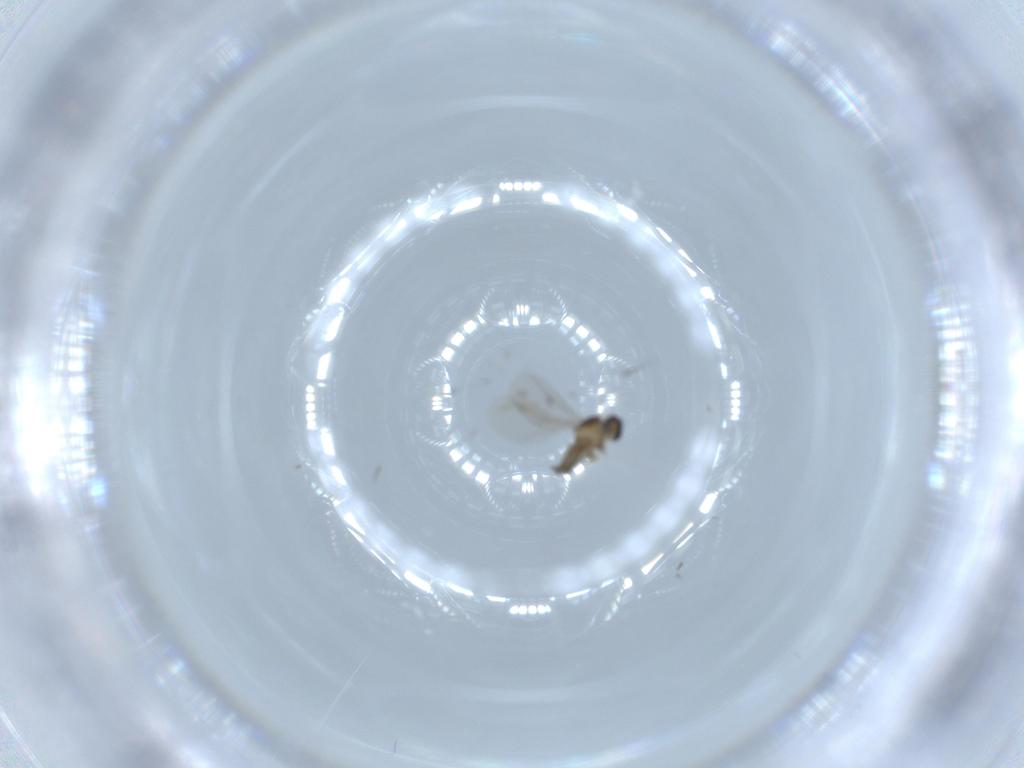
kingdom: Animalia
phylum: Arthropoda
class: Insecta
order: Diptera
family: Cecidomyiidae
